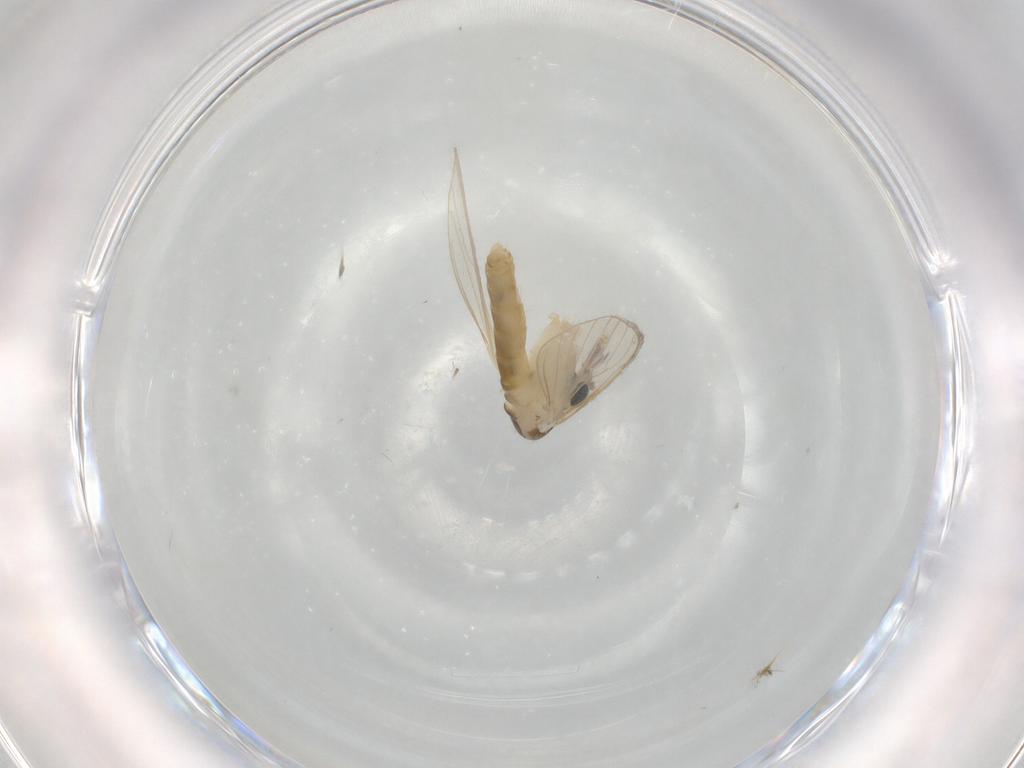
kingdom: Animalia
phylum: Arthropoda
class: Insecta
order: Diptera
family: Psychodidae
